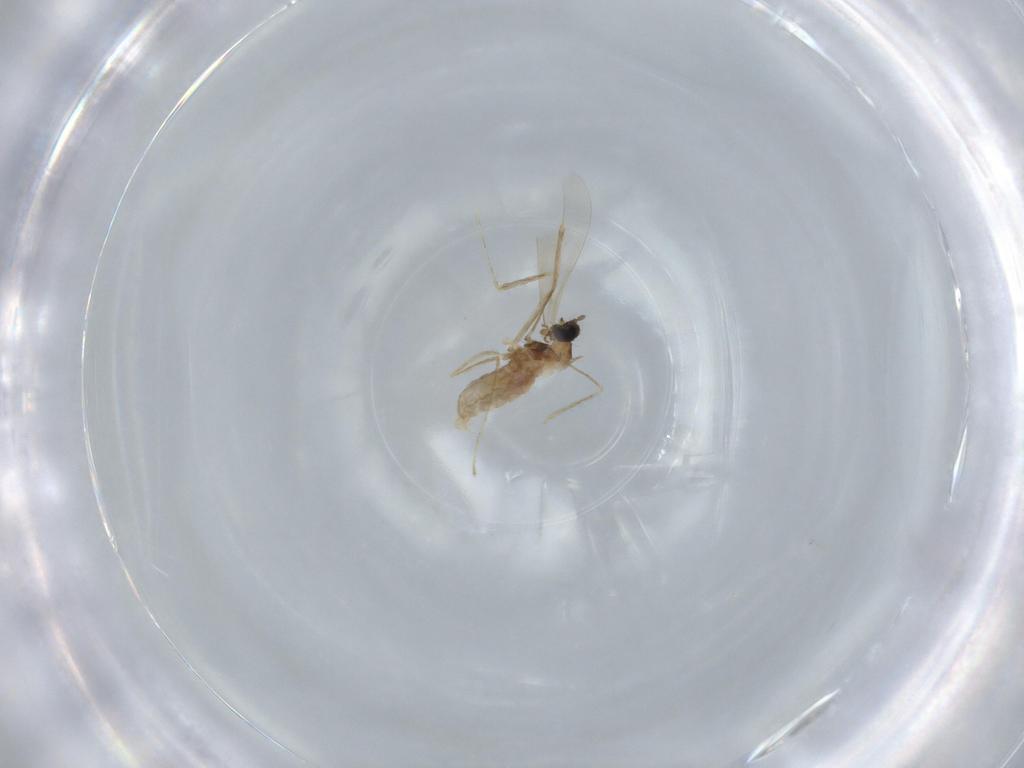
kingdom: Animalia
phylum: Arthropoda
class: Insecta
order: Diptera
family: Cecidomyiidae
